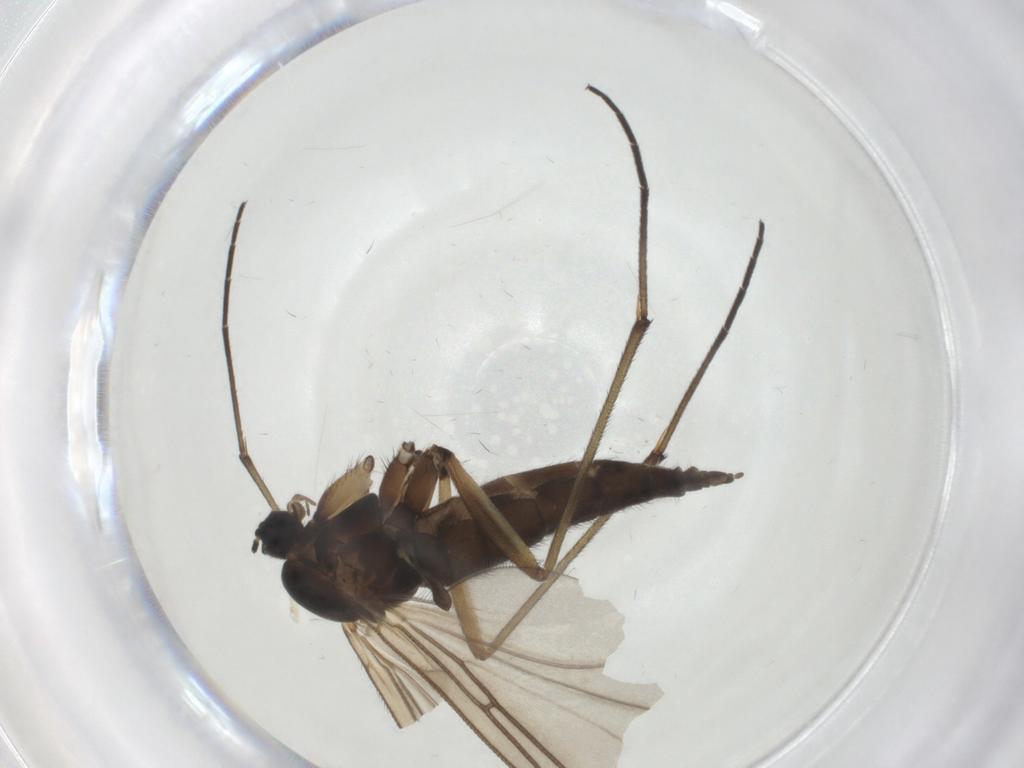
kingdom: Animalia
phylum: Arthropoda
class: Insecta
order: Diptera
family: Sciaridae
